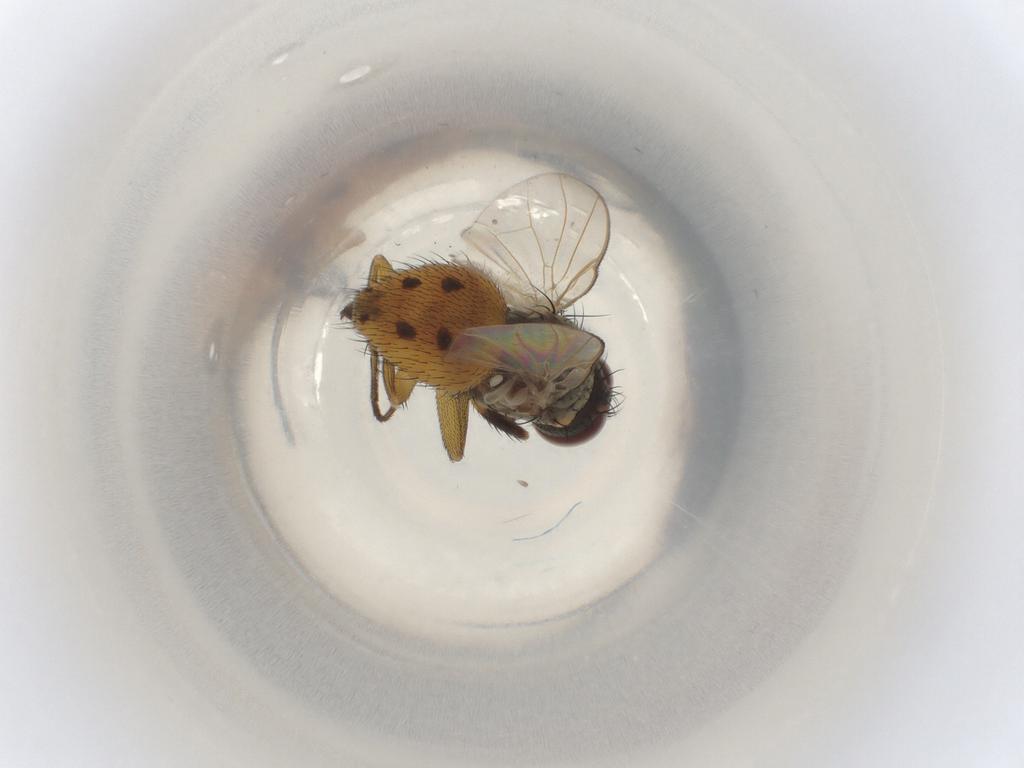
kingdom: Animalia
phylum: Arthropoda
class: Insecta
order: Diptera
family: Muscidae
